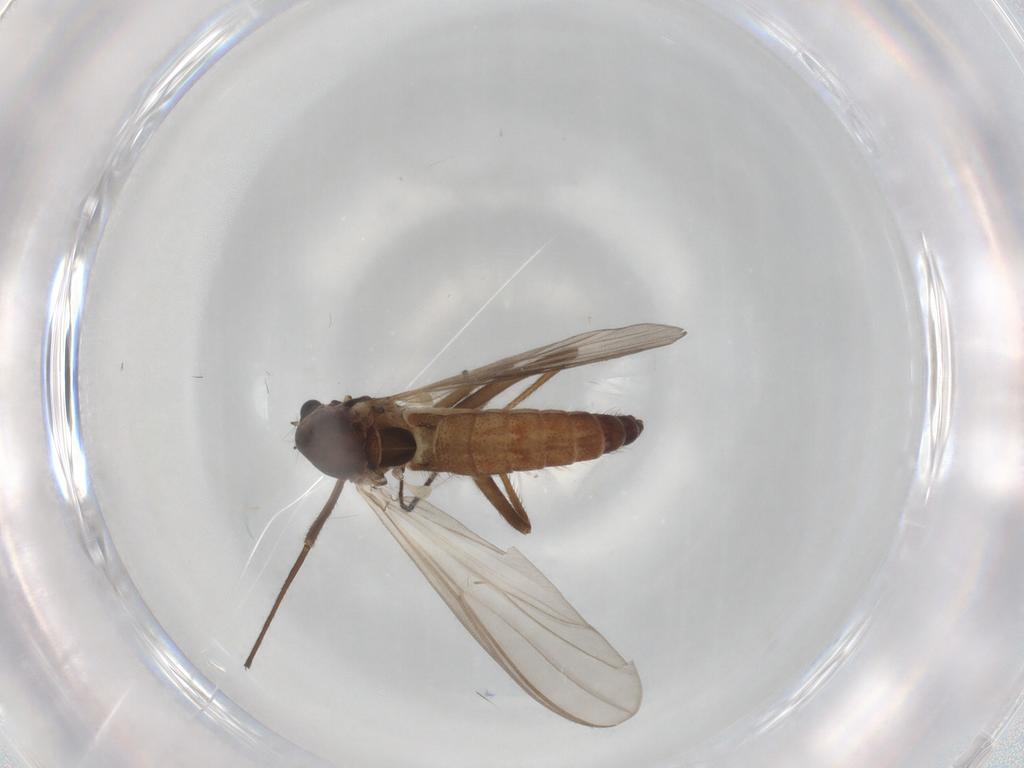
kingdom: Animalia
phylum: Arthropoda
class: Insecta
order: Diptera
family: Chironomidae
